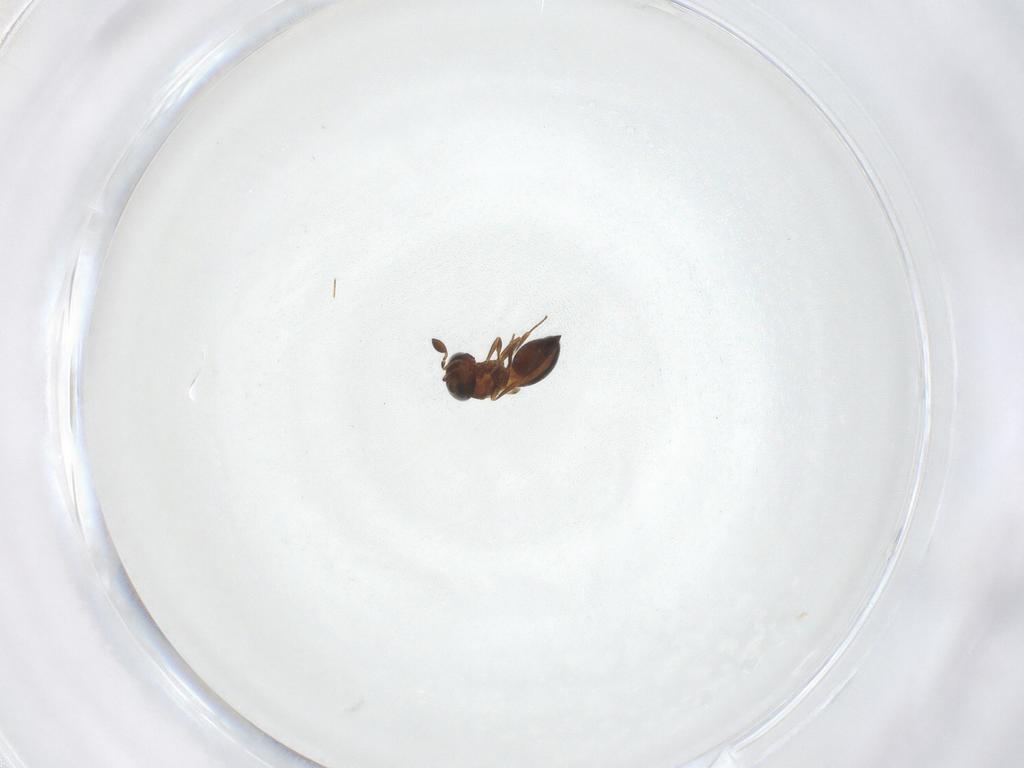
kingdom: Animalia
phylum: Arthropoda
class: Insecta
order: Hymenoptera
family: Scelionidae
